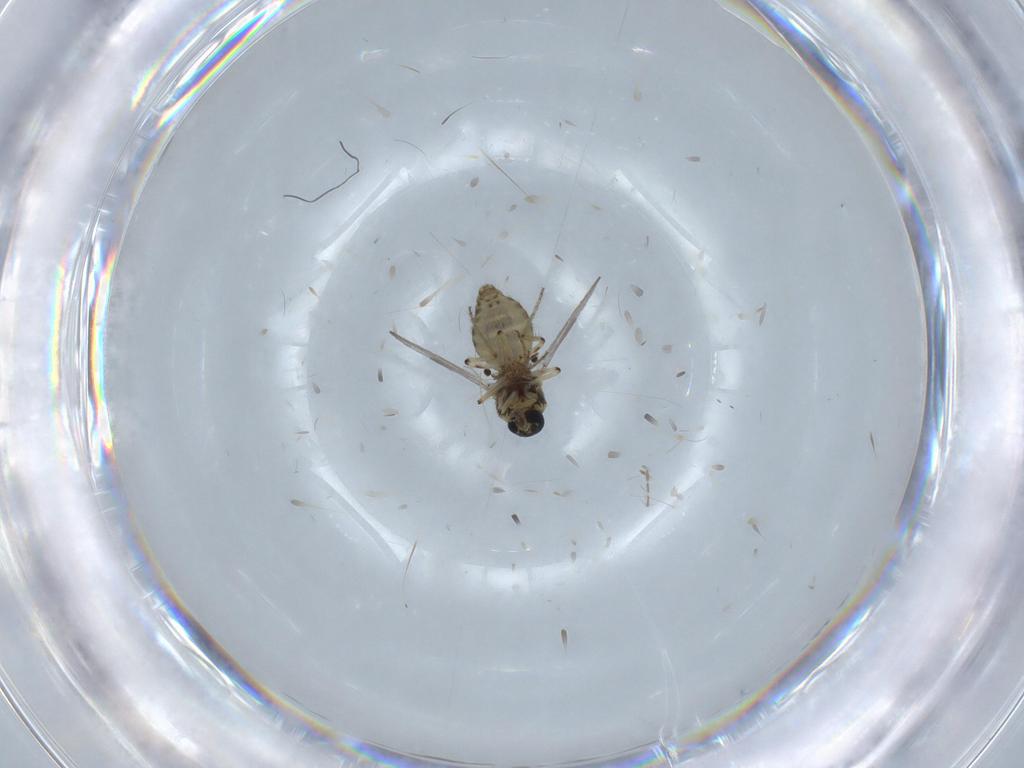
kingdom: Animalia
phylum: Arthropoda
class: Insecta
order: Diptera
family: Ceratopogonidae
